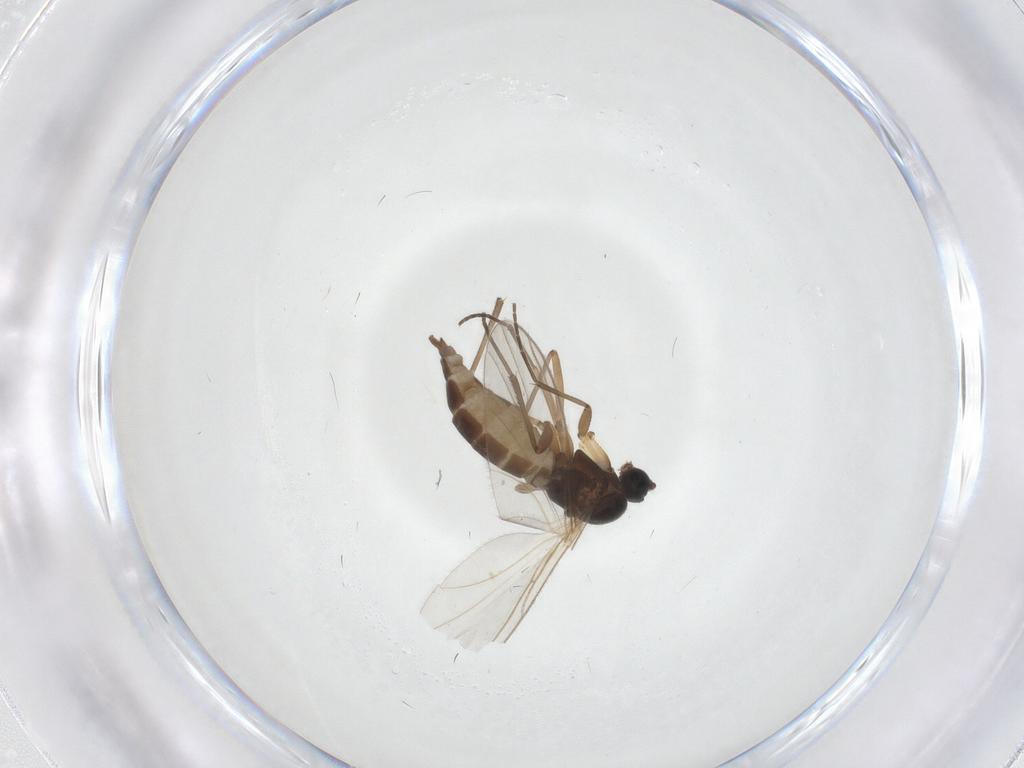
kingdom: Animalia
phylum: Arthropoda
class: Insecta
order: Diptera
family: Sciaridae
